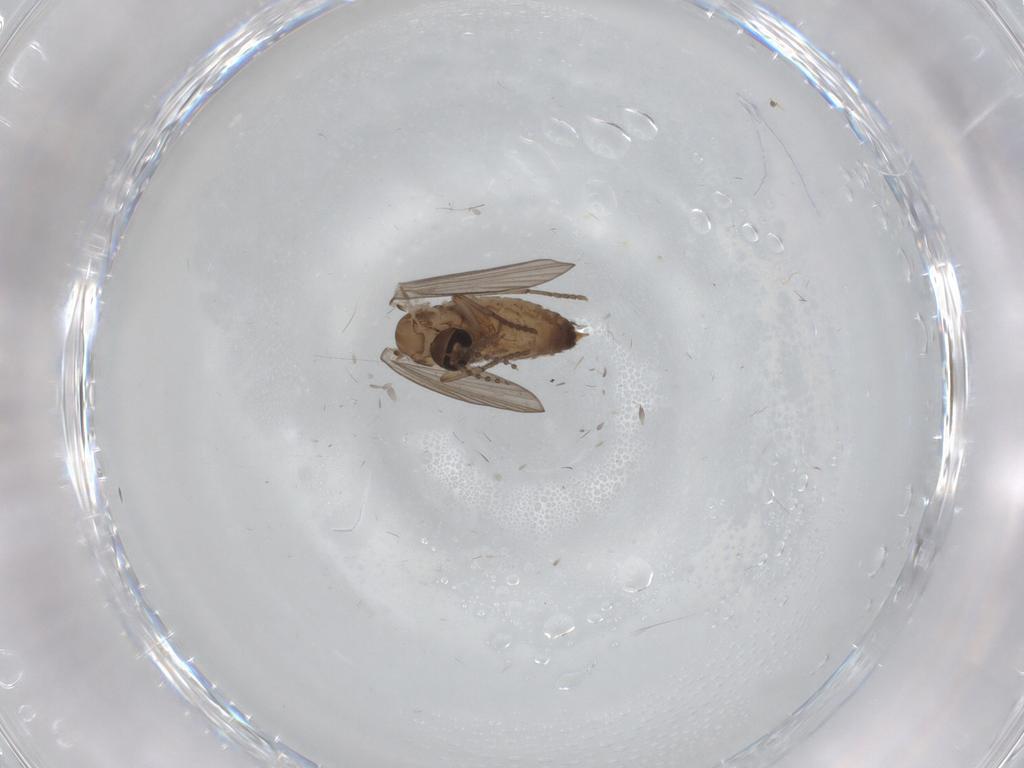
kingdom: Animalia
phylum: Arthropoda
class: Insecta
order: Diptera
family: Psychodidae
